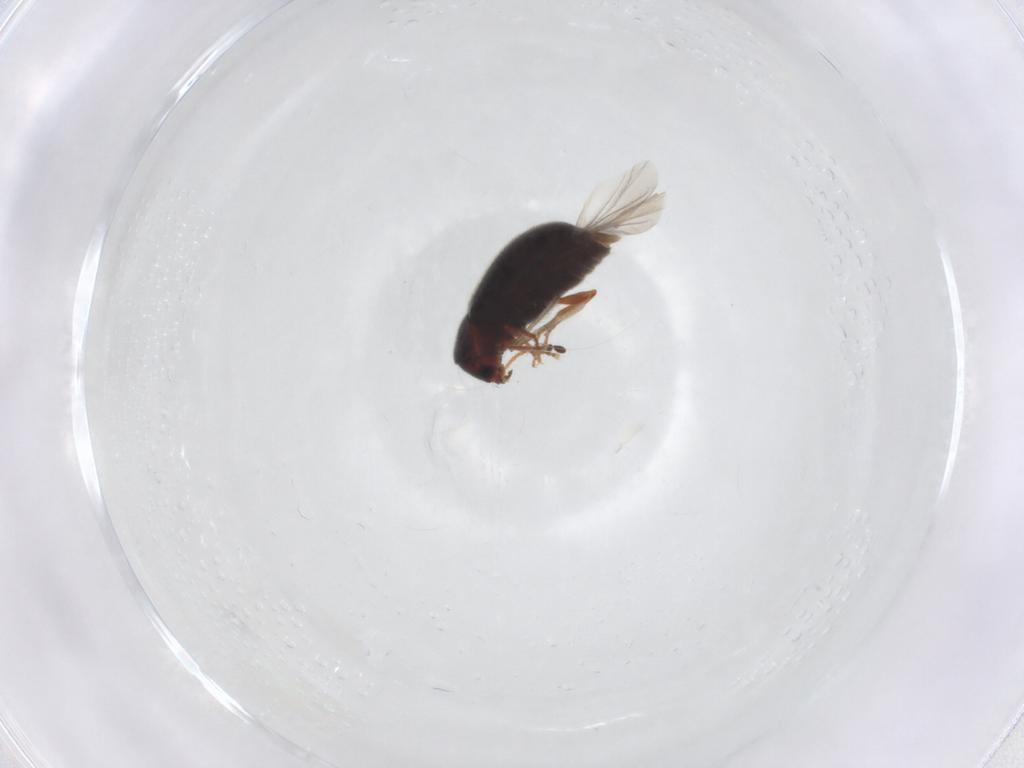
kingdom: Animalia
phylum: Arthropoda
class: Insecta
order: Coleoptera
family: Ptinidae
